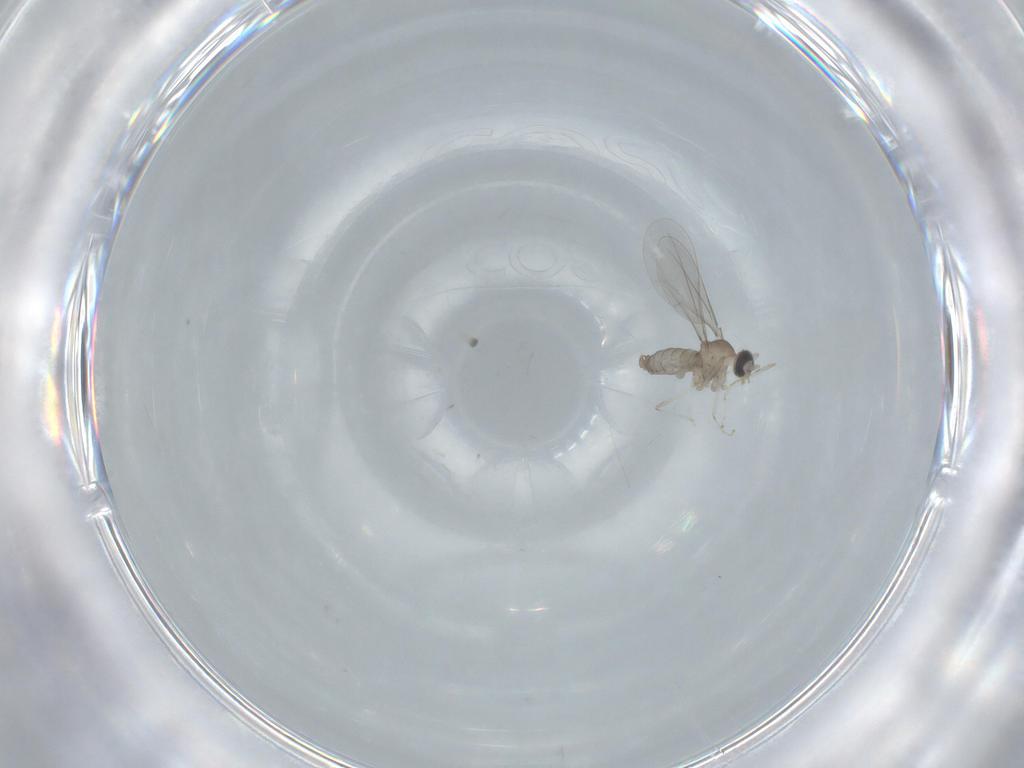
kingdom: Animalia
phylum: Arthropoda
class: Insecta
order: Diptera
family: Cecidomyiidae
